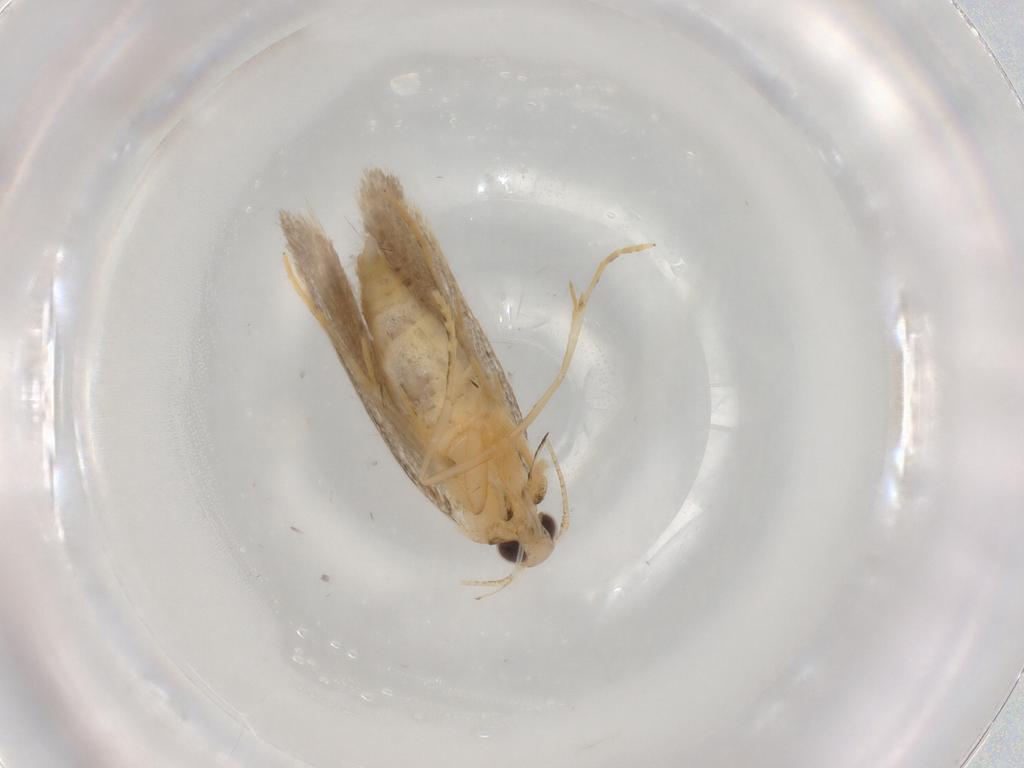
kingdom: Animalia
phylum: Arthropoda
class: Insecta
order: Lepidoptera
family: Autostichidae
